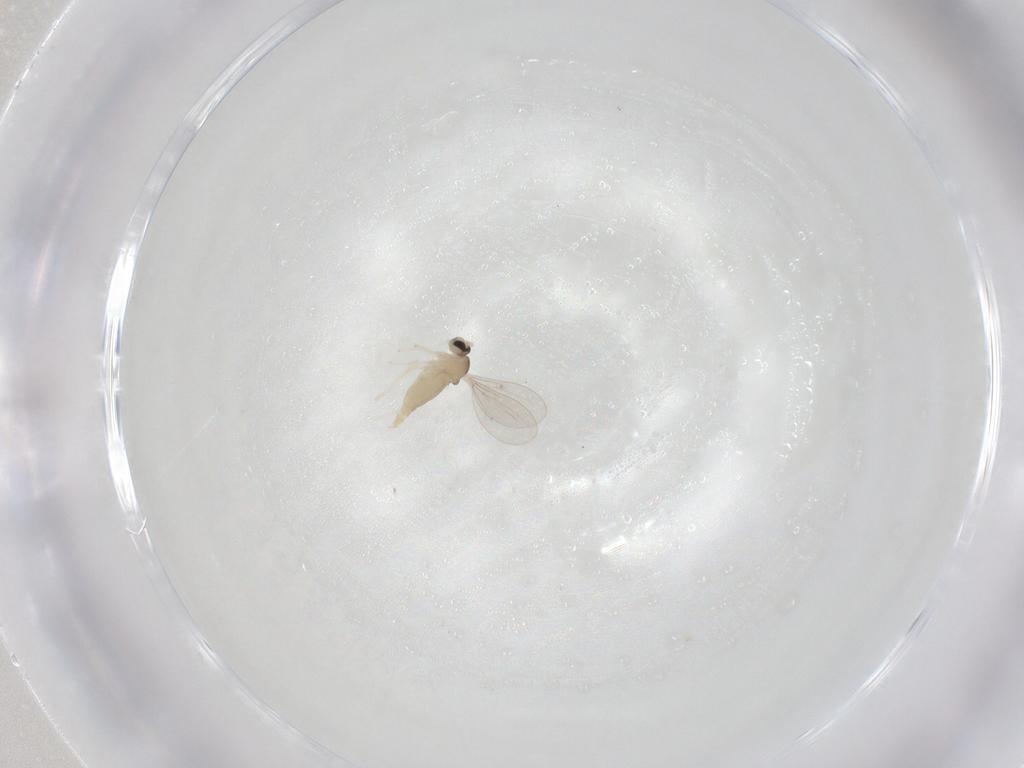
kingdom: Animalia
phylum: Arthropoda
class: Insecta
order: Diptera
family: Cecidomyiidae
